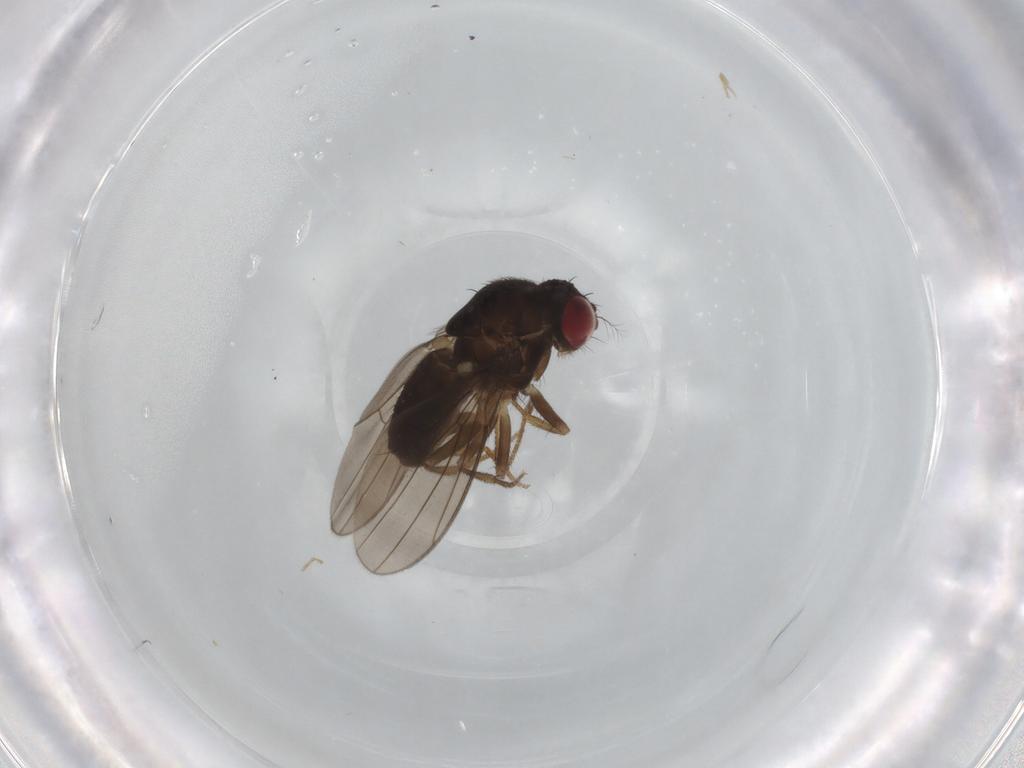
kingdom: Animalia
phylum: Arthropoda
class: Insecta
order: Diptera
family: Drosophilidae
